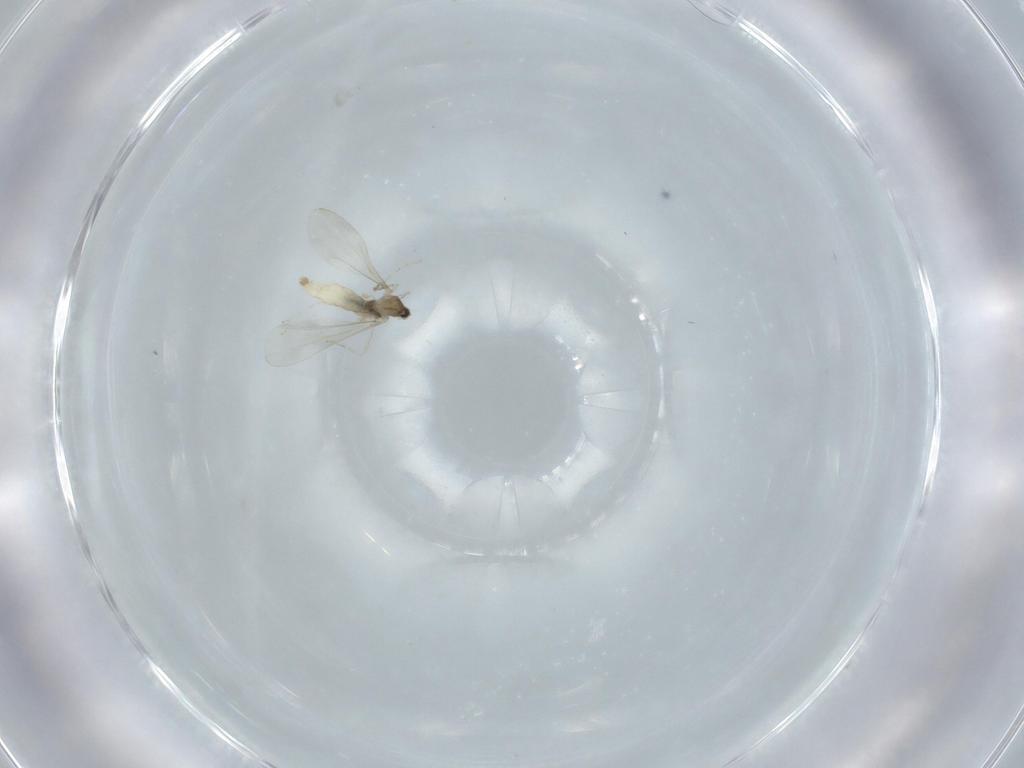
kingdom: Animalia
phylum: Arthropoda
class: Insecta
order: Diptera
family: Cecidomyiidae
